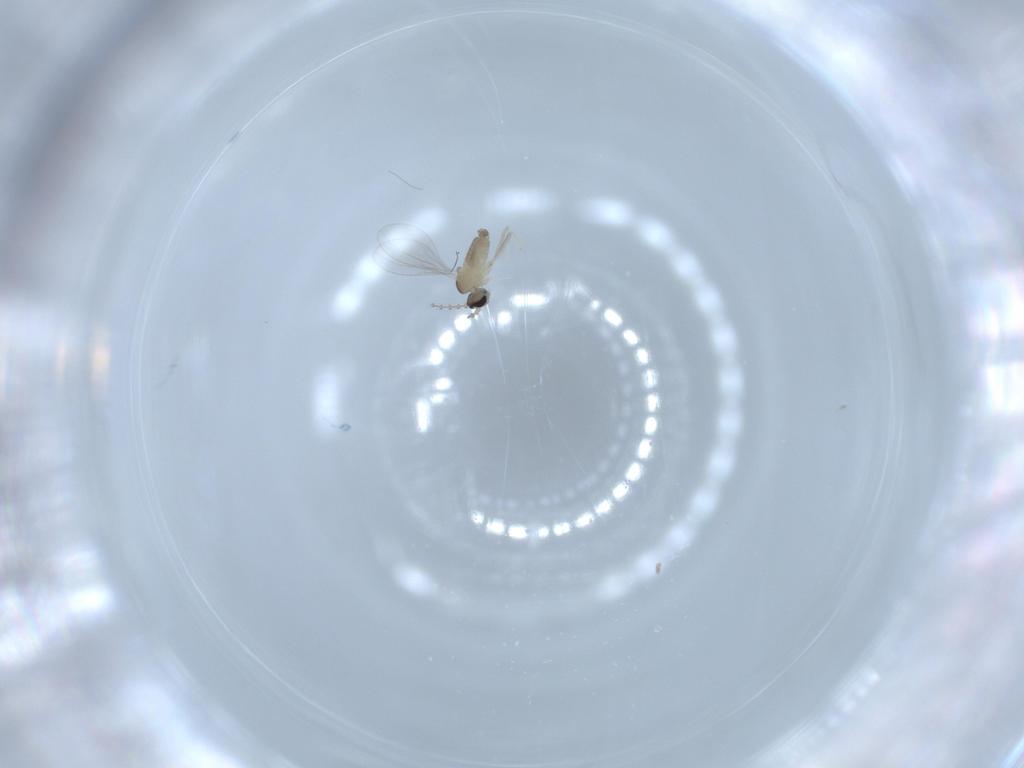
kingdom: Animalia
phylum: Arthropoda
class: Insecta
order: Diptera
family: Cecidomyiidae
